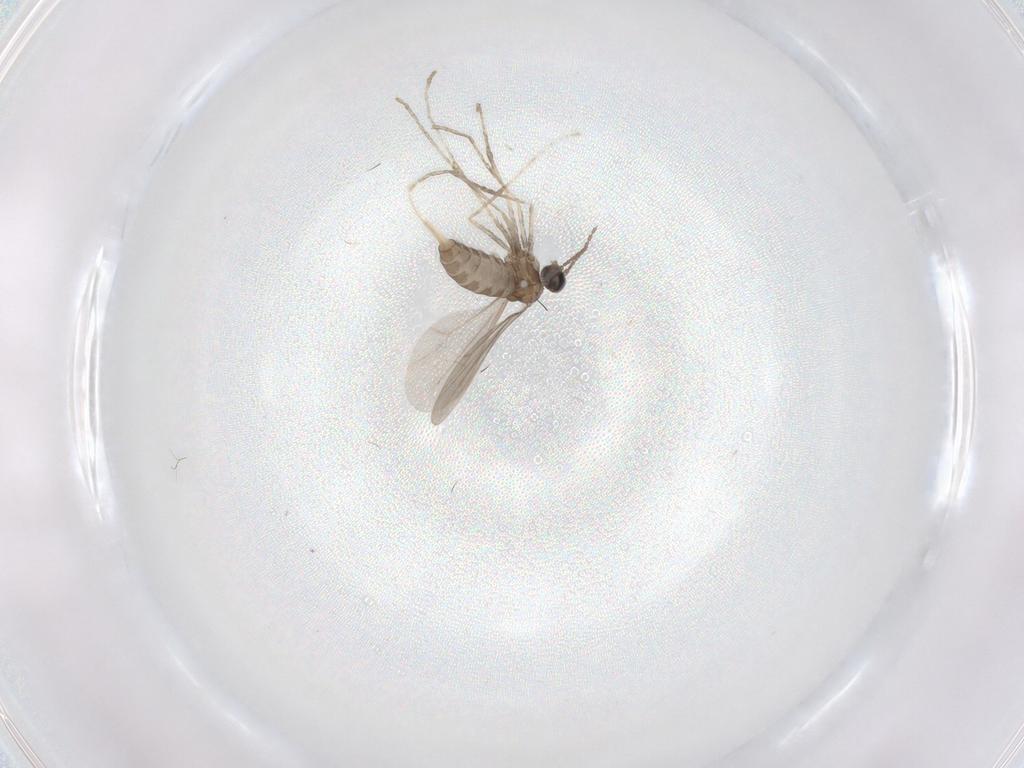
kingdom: Animalia
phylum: Arthropoda
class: Insecta
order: Diptera
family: Cecidomyiidae
